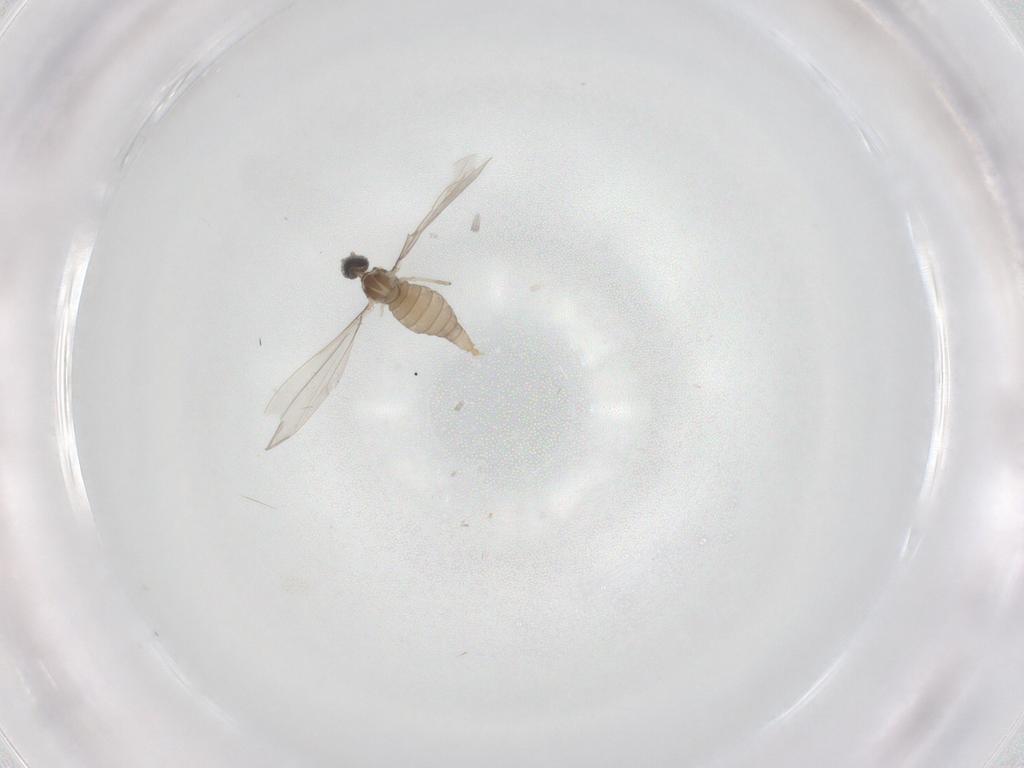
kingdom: Animalia
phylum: Arthropoda
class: Insecta
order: Diptera
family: Cecidomyiidae
